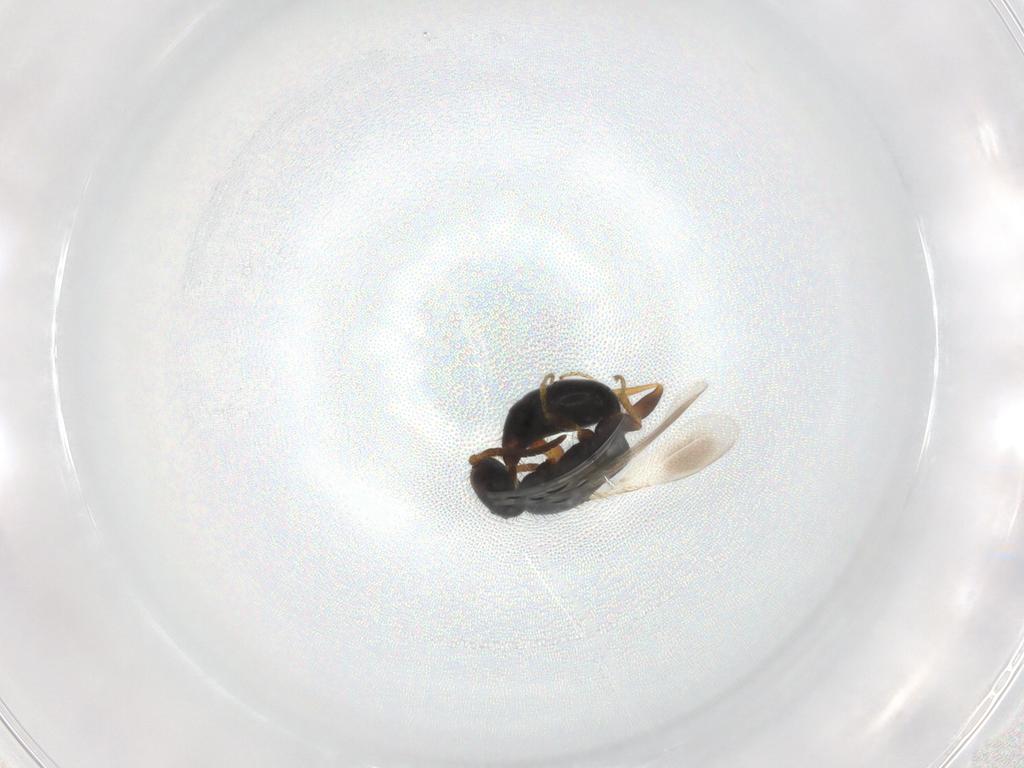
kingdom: Animalia
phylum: Arthropoda
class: Insecta
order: Hymenoptera
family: Bethylidae
